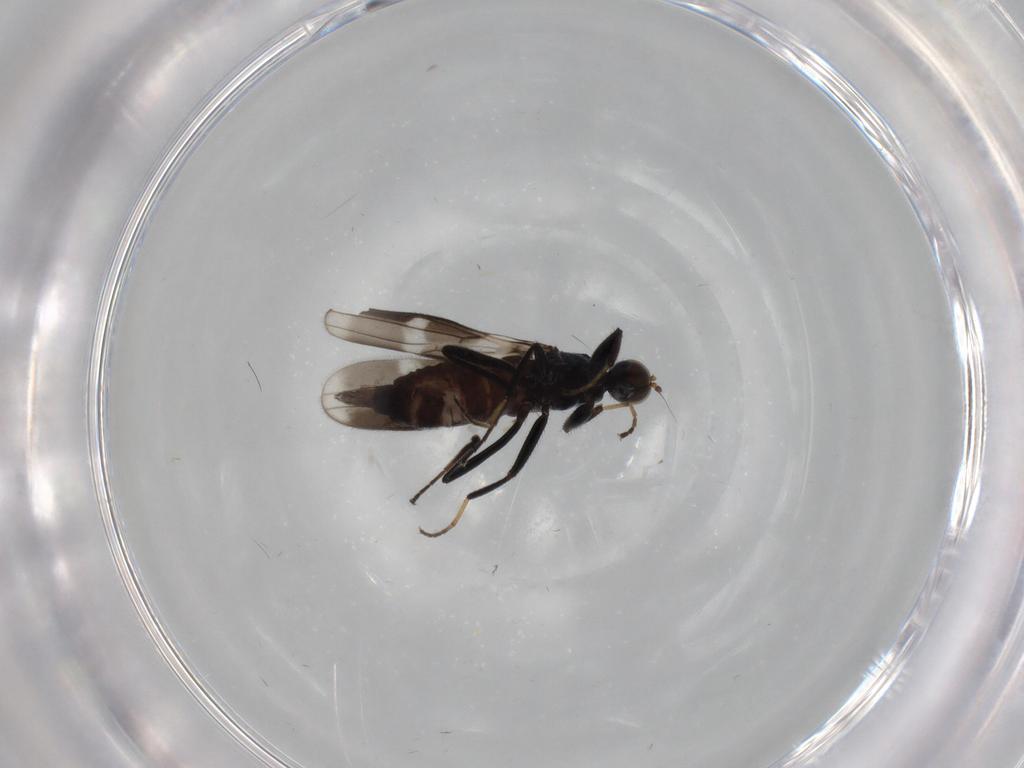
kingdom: Animalia
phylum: Arthropoda
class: Insecta
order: Diptera
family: Hybotidae
